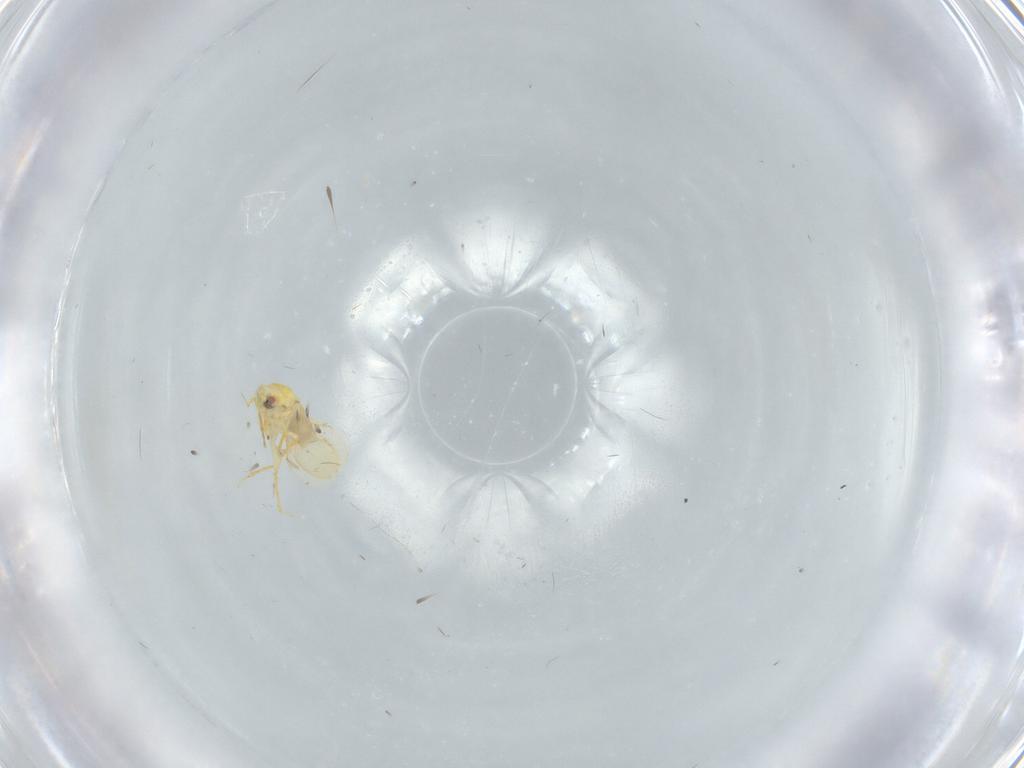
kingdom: Animalia
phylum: Arthropoda
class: Insecta
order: Hemiptera
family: Aleyrodidae
